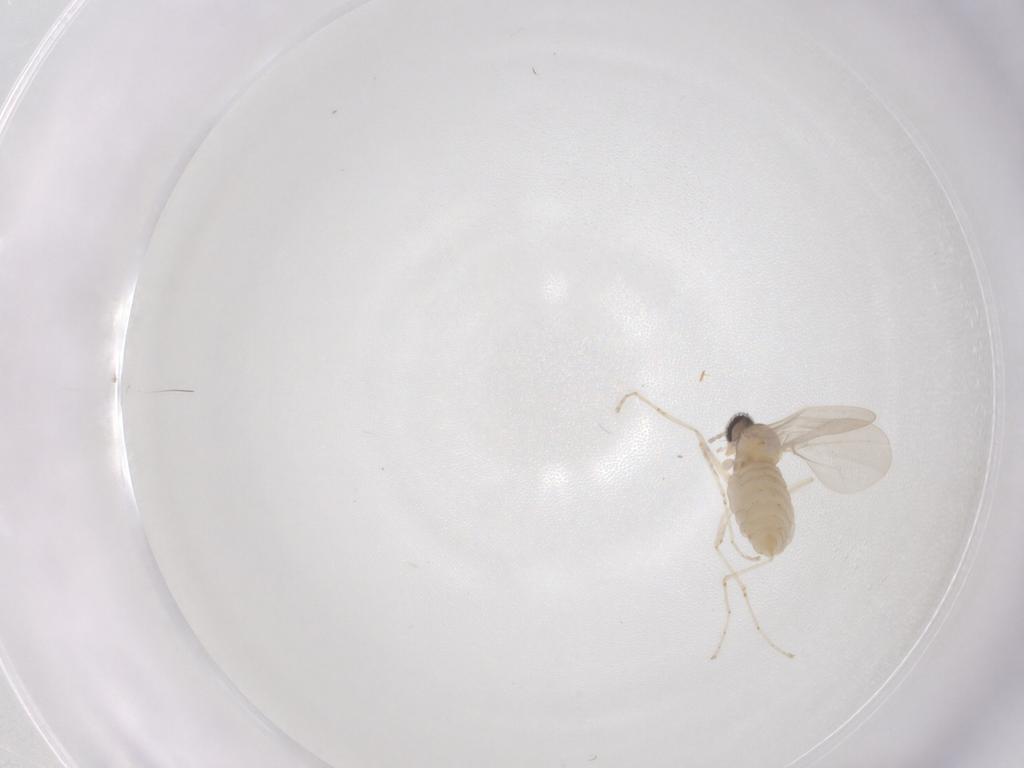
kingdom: Animalia
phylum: Arthropoda
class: Insecta
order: Diptera
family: Cecidomyiidae
